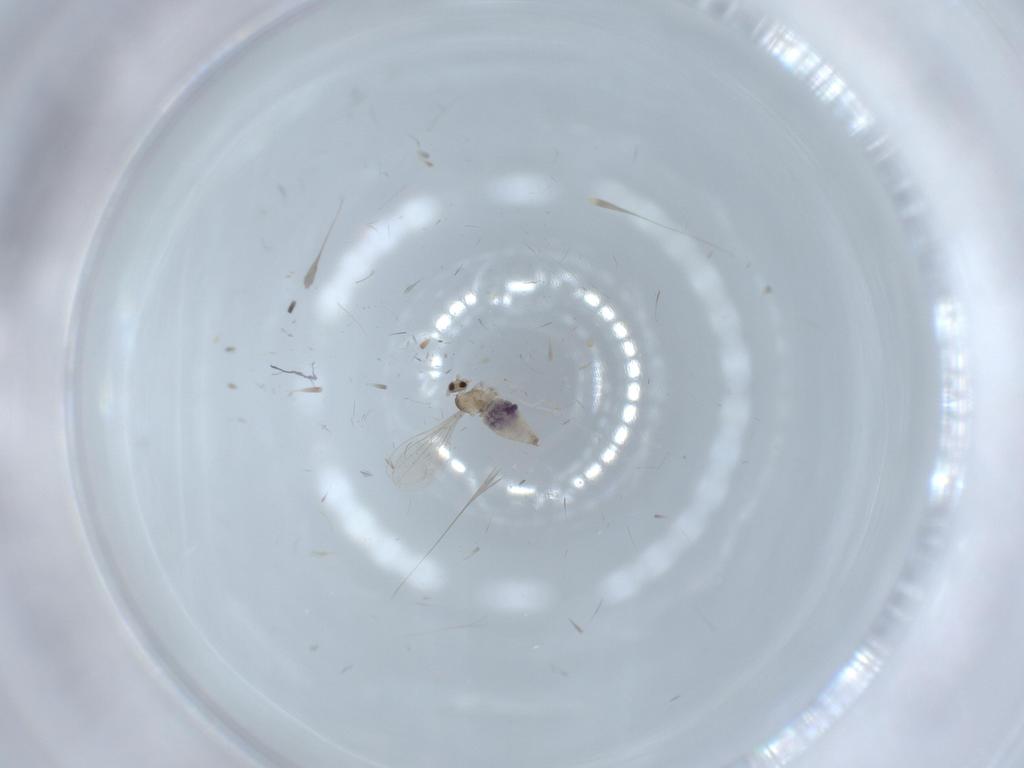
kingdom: Animalia
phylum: Arthropoda
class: Insecta
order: Diptera
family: Cecidomyiidae
